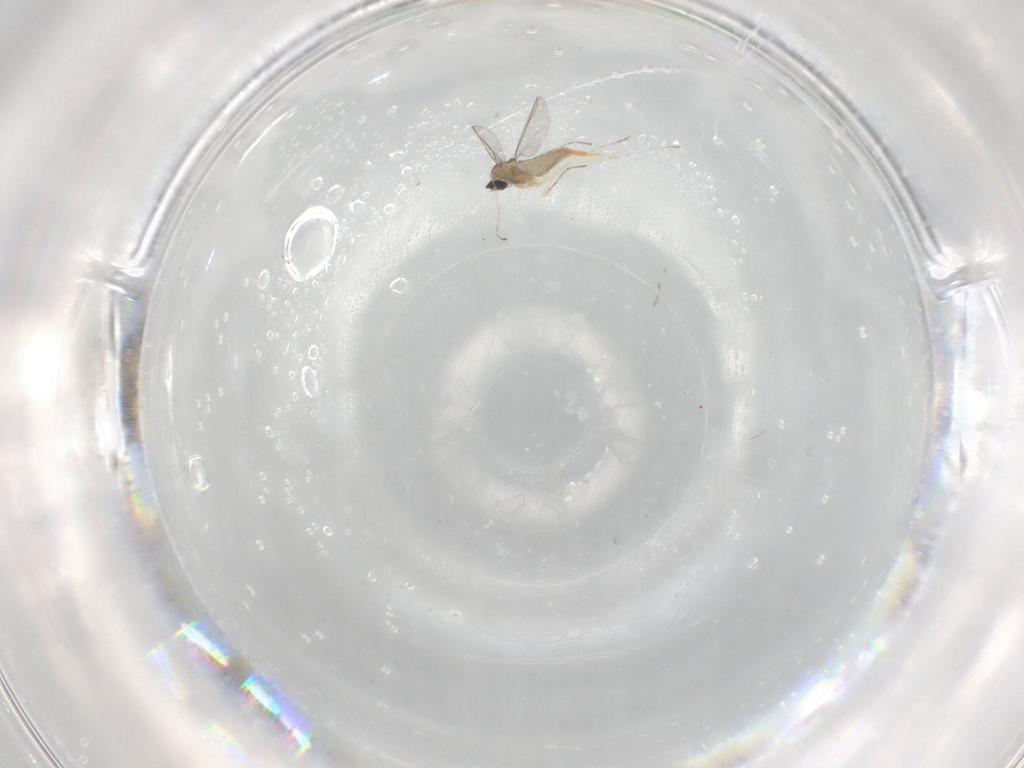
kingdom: Animalia
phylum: Arthropoda
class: Insecta
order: Diptera
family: Cecidomyiidae
